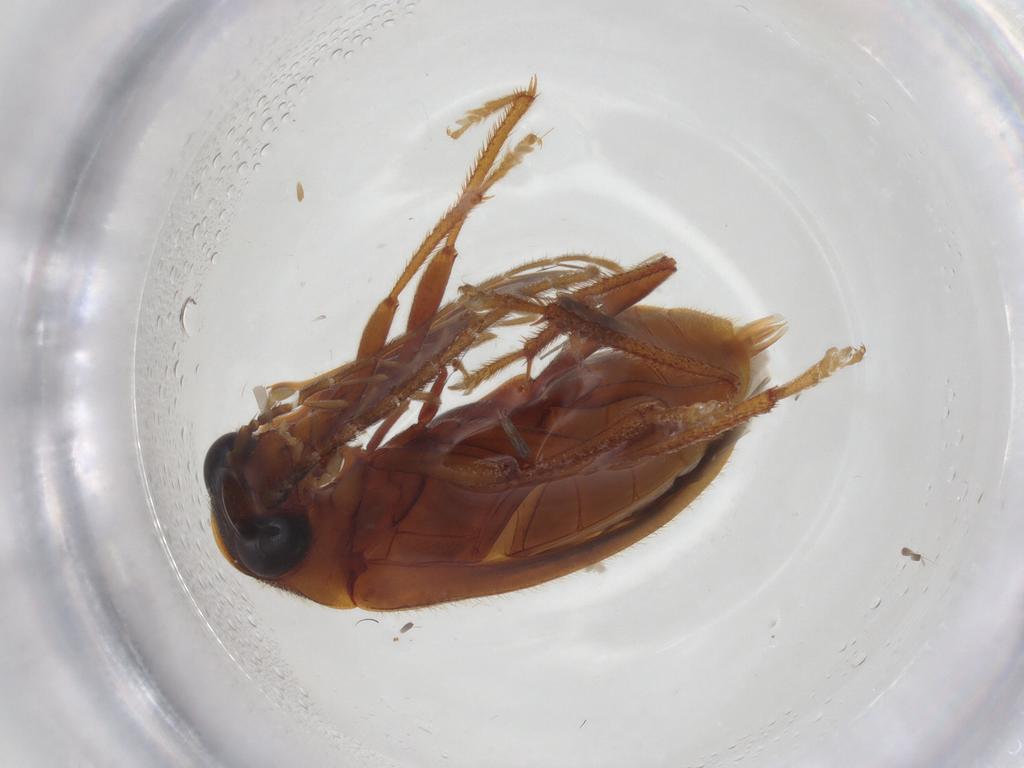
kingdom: Animalia
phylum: Arthropoda
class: Insecta
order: Coleoptera
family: Ptilodactylidae
